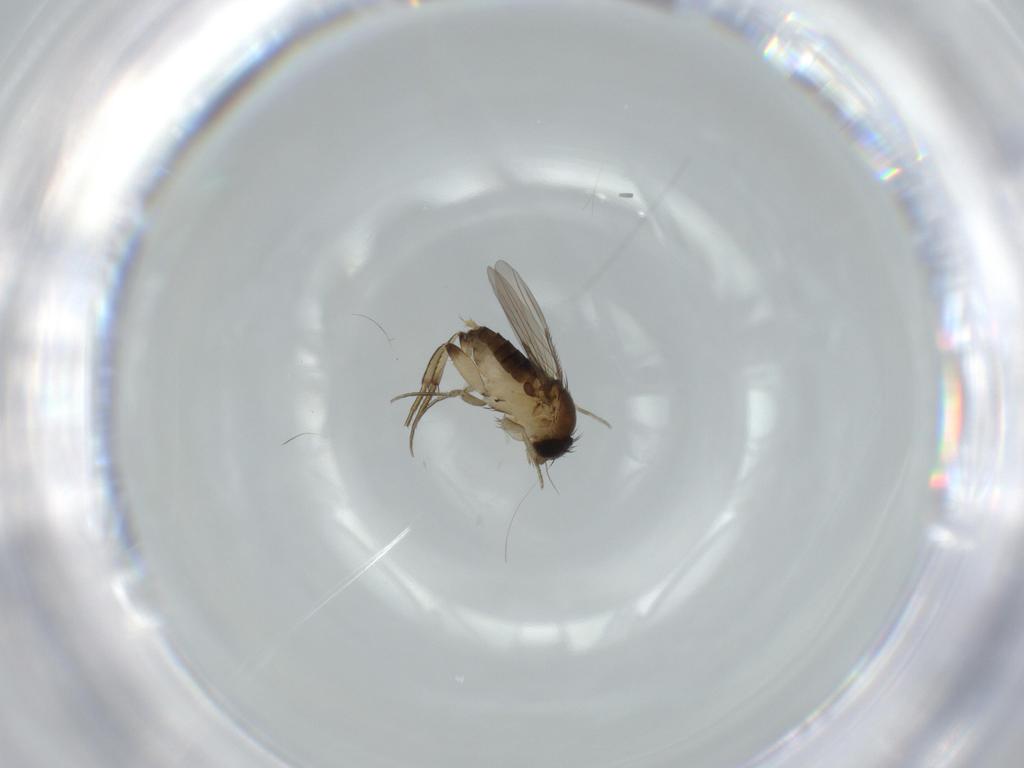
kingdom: Animalia
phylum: Arthropoda
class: Insecta
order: Diptera
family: Phoridae
